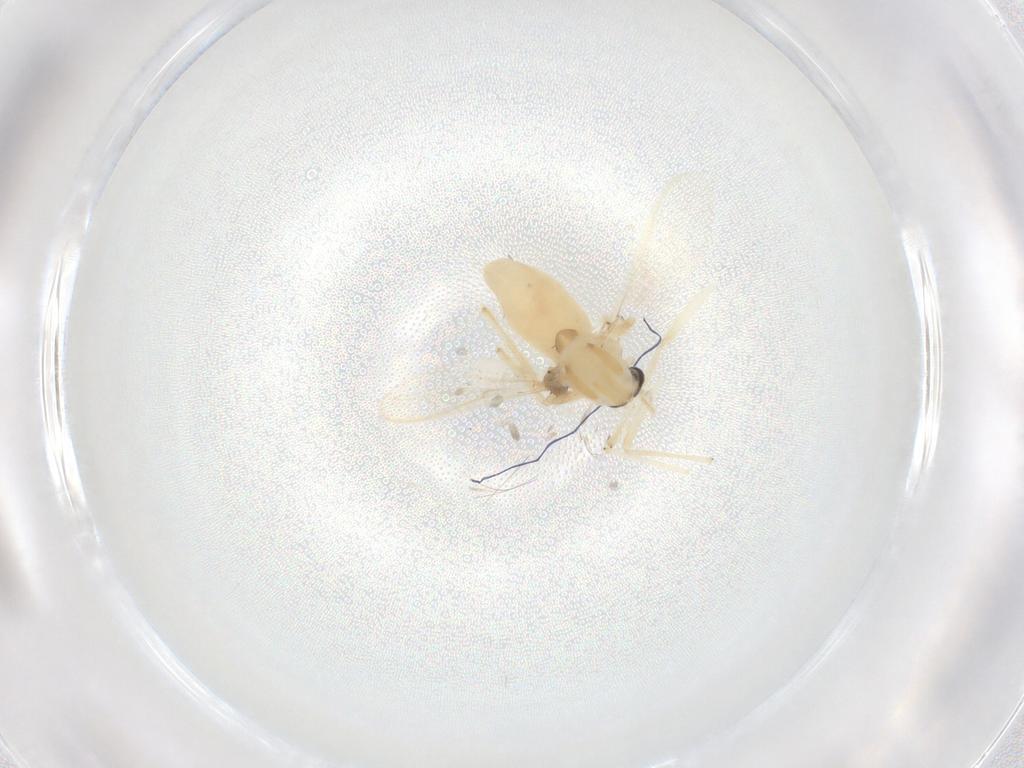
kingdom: Animalia
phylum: Arthropoda
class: Insecta
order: Diptera
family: Chironomidae
